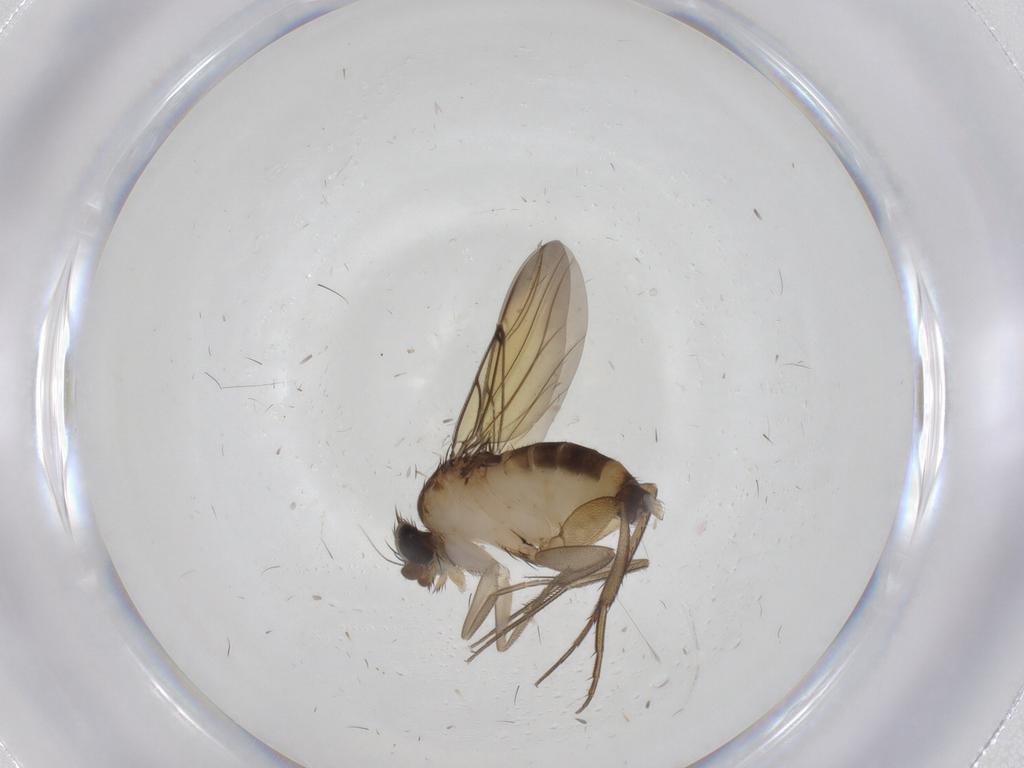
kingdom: Animalia
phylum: Arthropoda
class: Insecta
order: Diptera
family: Phoridae
